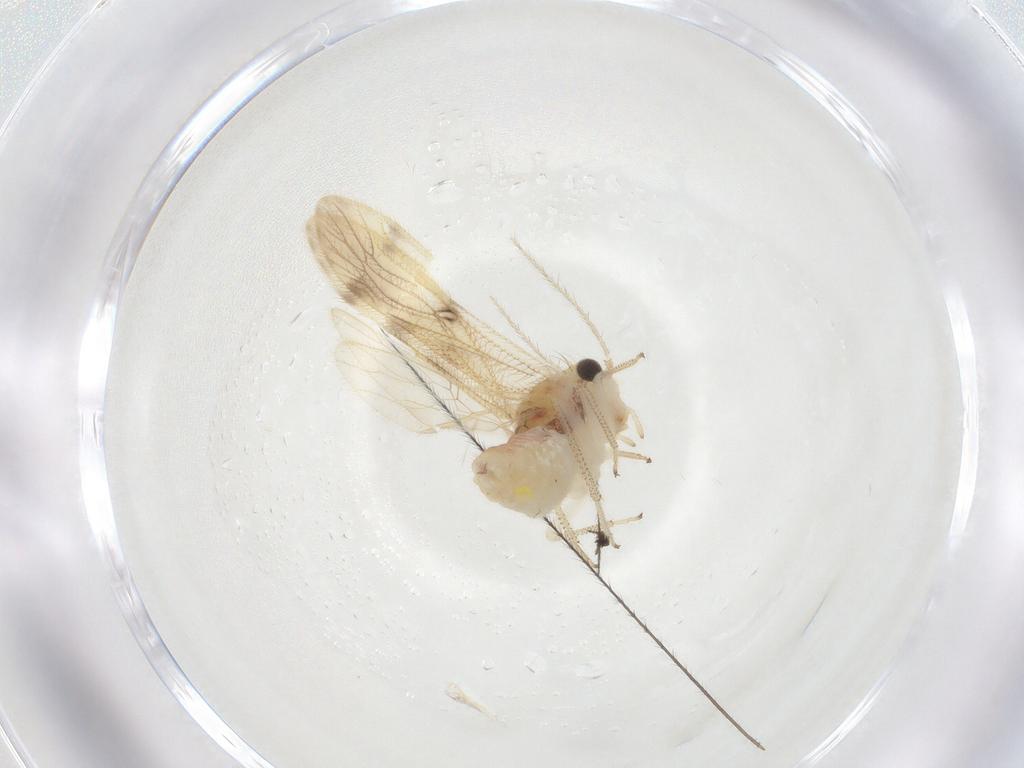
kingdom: Animalia
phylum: Arthropoda
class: Insecta
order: Psocodea
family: Pseudocaeciliidae
